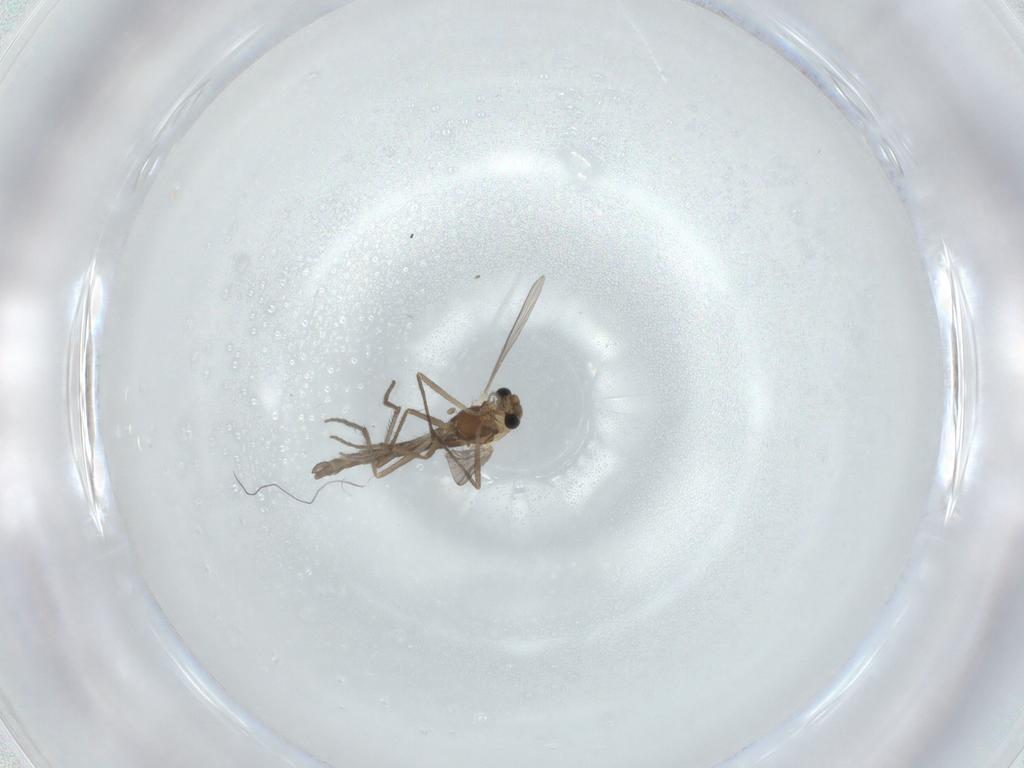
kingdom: Animalia
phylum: Arthropoda
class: Insecta
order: Diptera
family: Chironomidae
